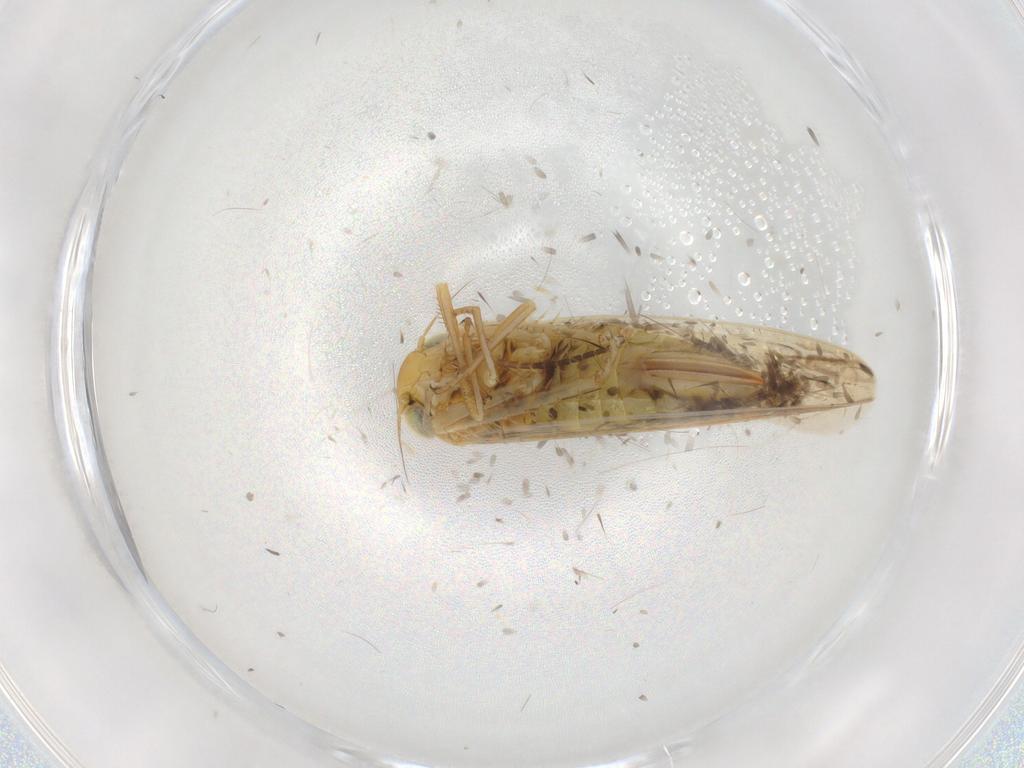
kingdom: Animalia
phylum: Arthropoda
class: Insecta
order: Hemiptera
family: Cicadellidae
